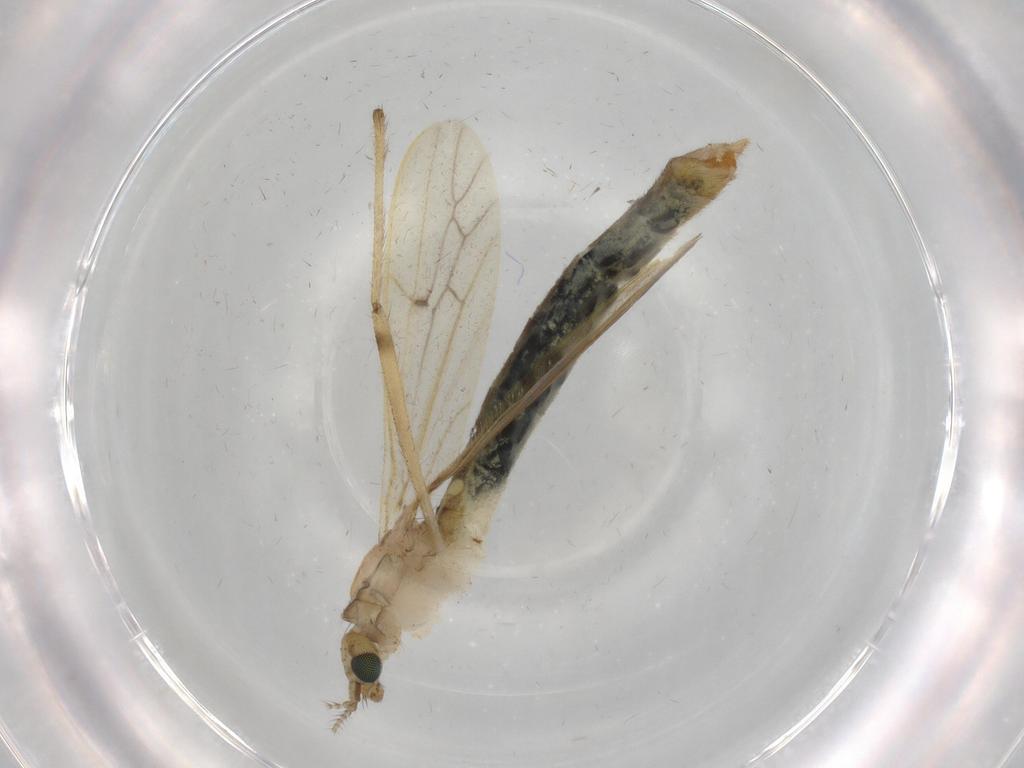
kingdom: Animalia
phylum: Arthropoda
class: Insecta
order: Diptera
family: Limoniidae
